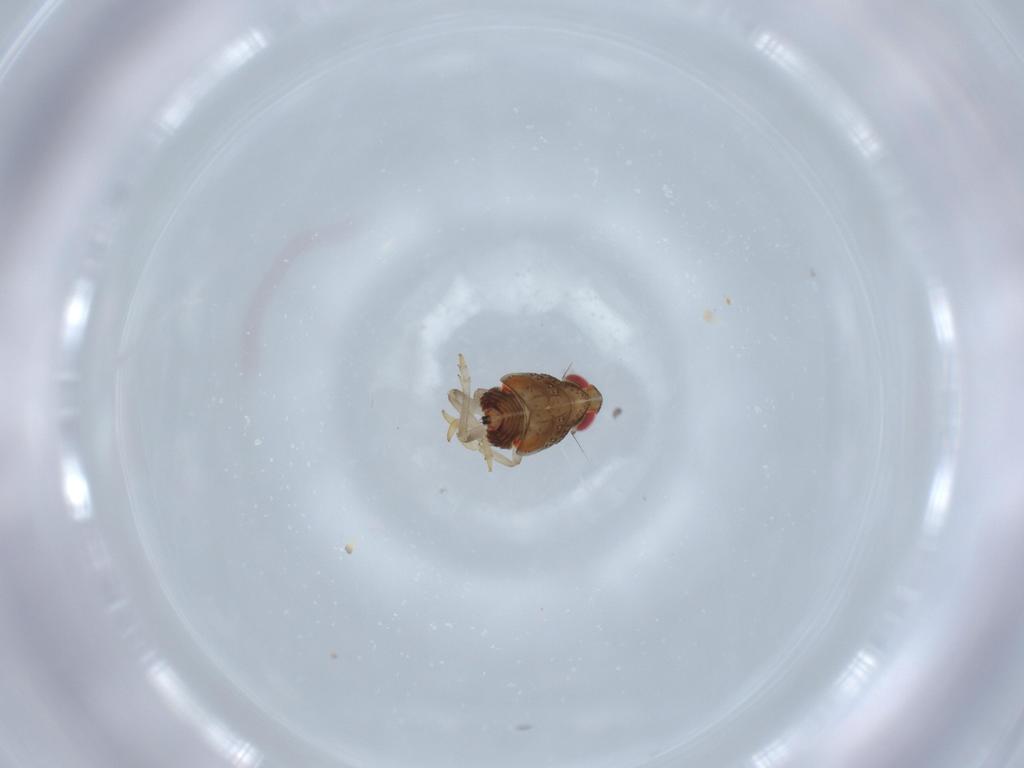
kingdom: Animalia
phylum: Arthropoda
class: Insecta
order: Hemiptera
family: Issidae
